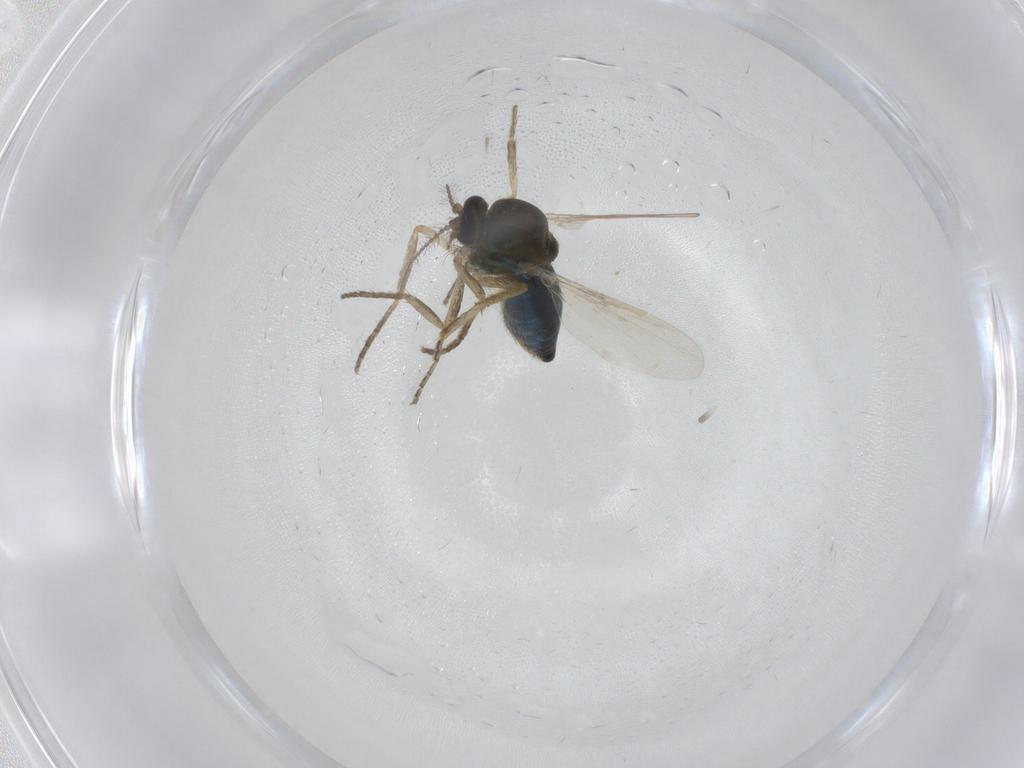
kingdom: Animalia
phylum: Arthropoda
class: Insecta
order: Diptera
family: Ceratopogonidae
